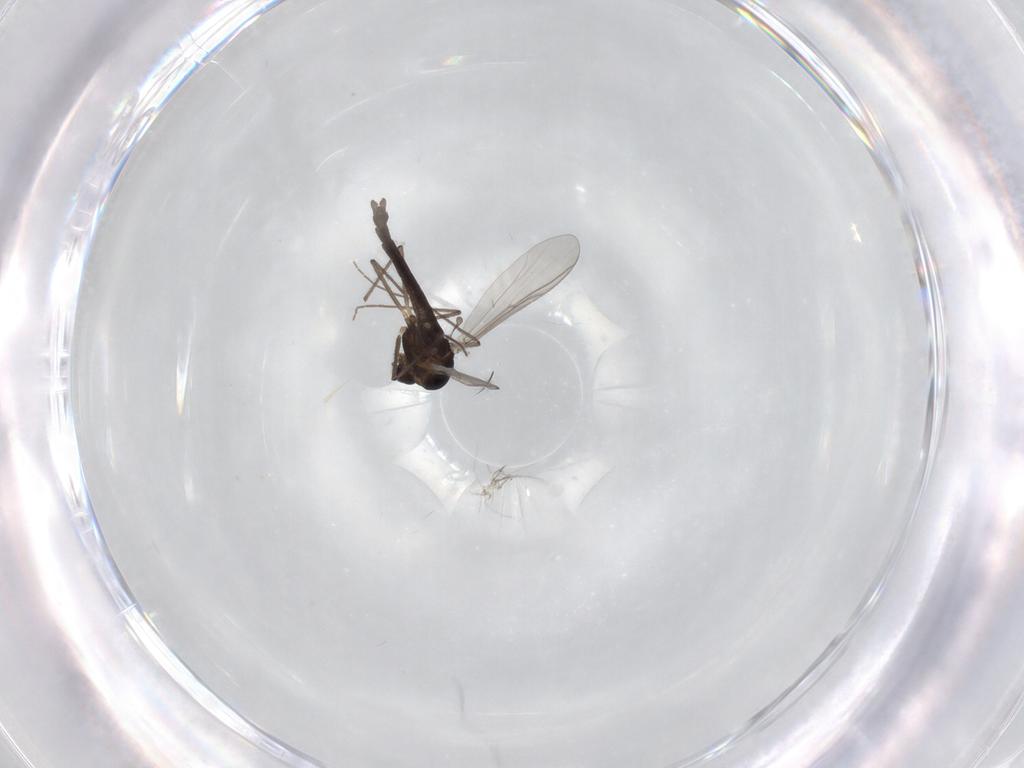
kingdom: Animalia
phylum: Arthropoda
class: Insecta
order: Diptera
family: Chironomidae
